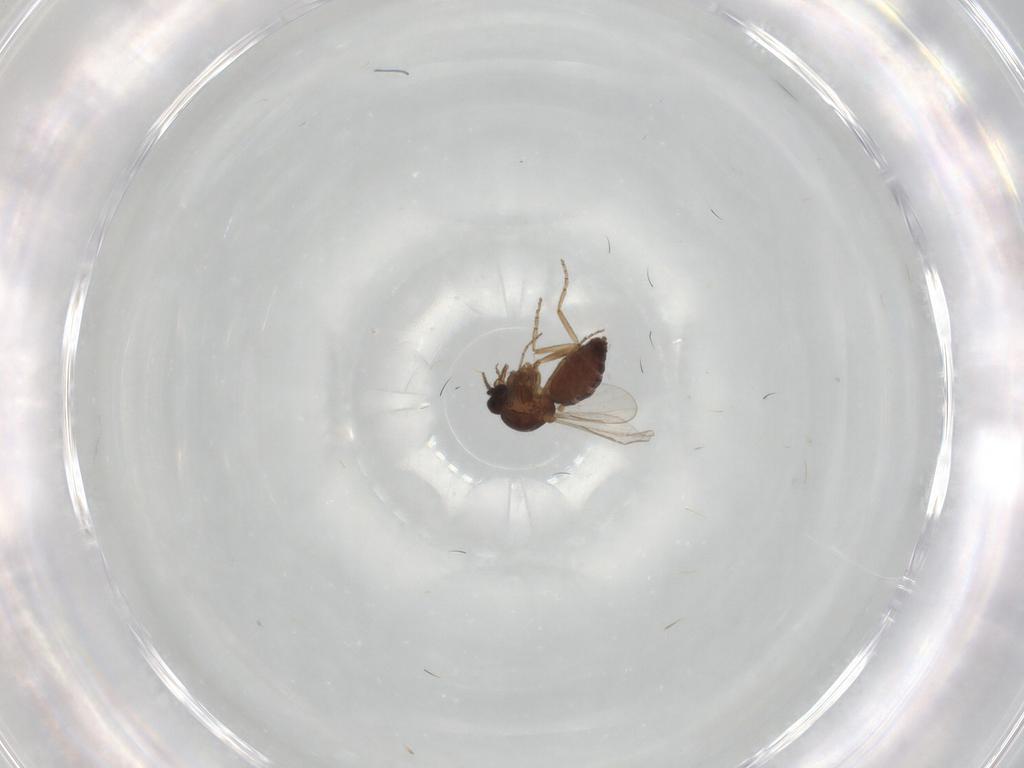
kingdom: Animalia
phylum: Arthropoda
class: Insecta
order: Diptera
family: Ceratopogonidae
